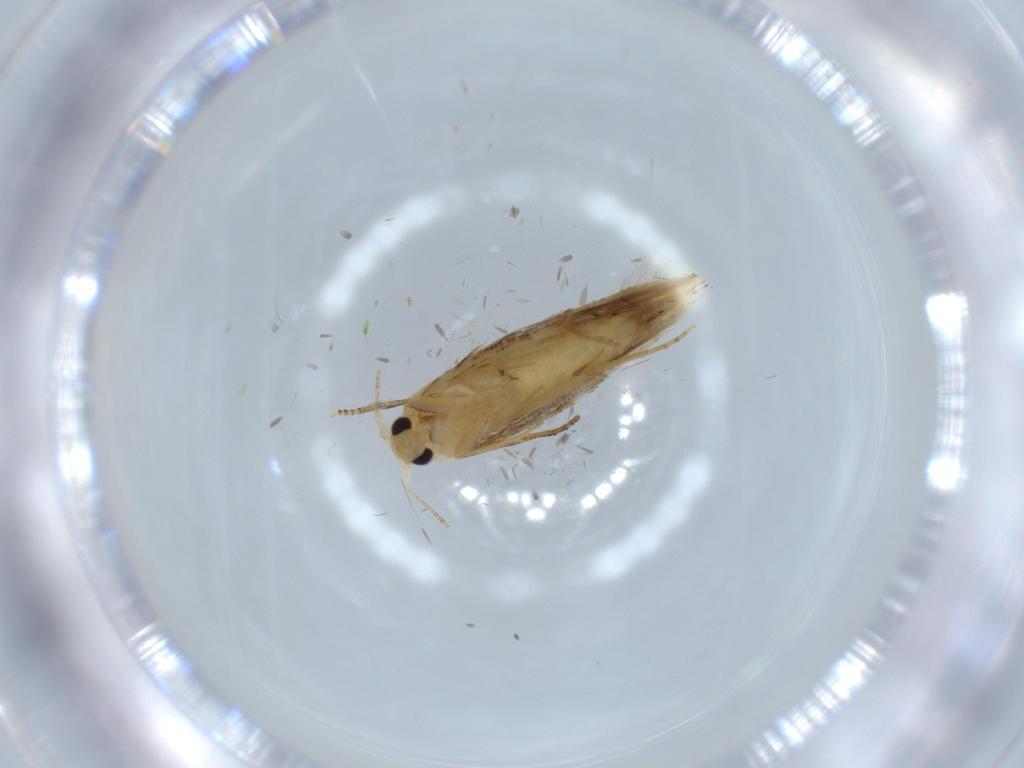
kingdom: Animalia
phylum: Arthropoda
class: Insecta
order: Lepidoptera
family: Bucculatricidae
